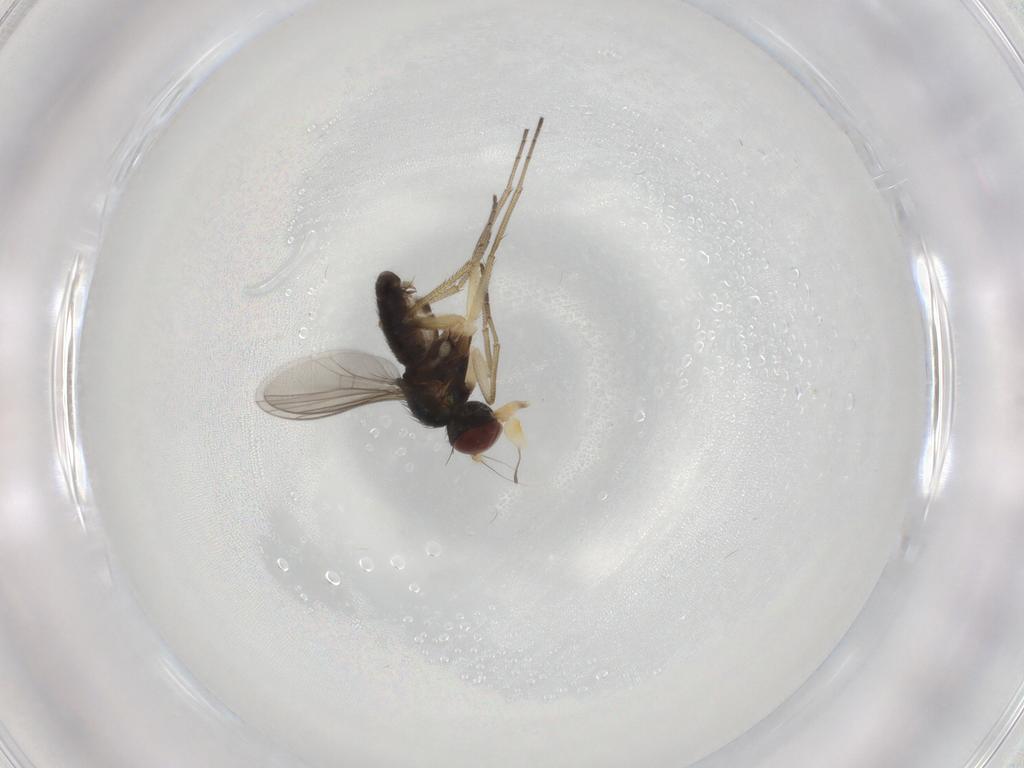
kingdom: Animalia
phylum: Arthropoda
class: Insecta
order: Diptera
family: Dolichopodidae
